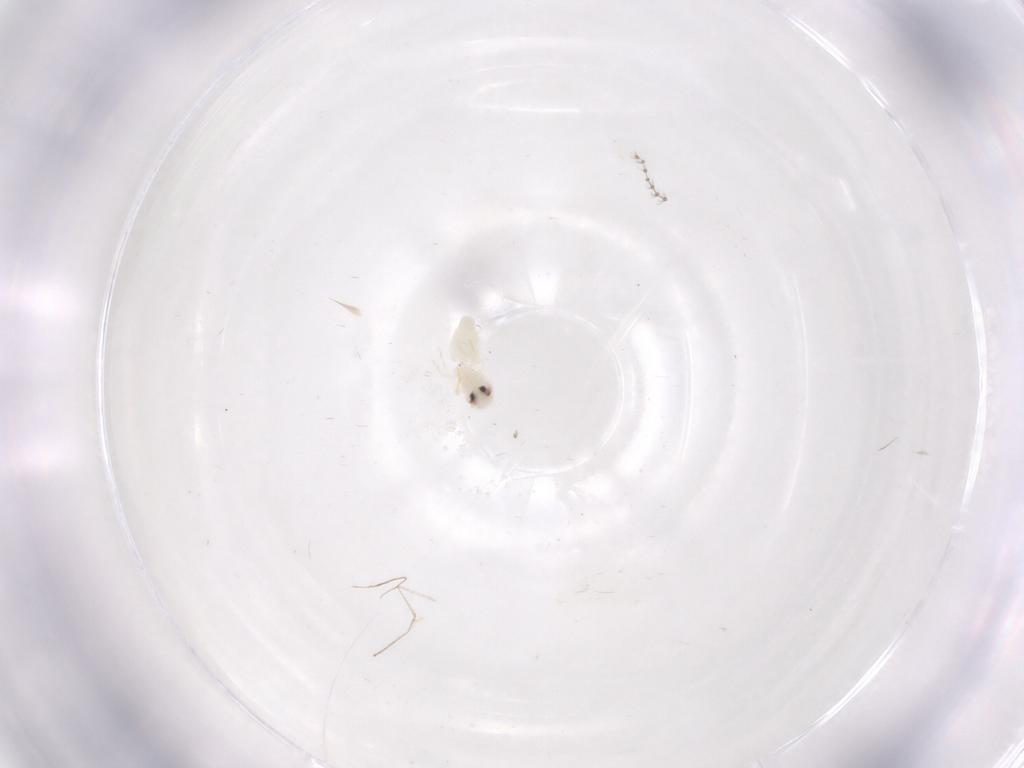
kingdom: Animalia
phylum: Arthropoda
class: Insecta
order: Hemiptera
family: Aleyrodidae
